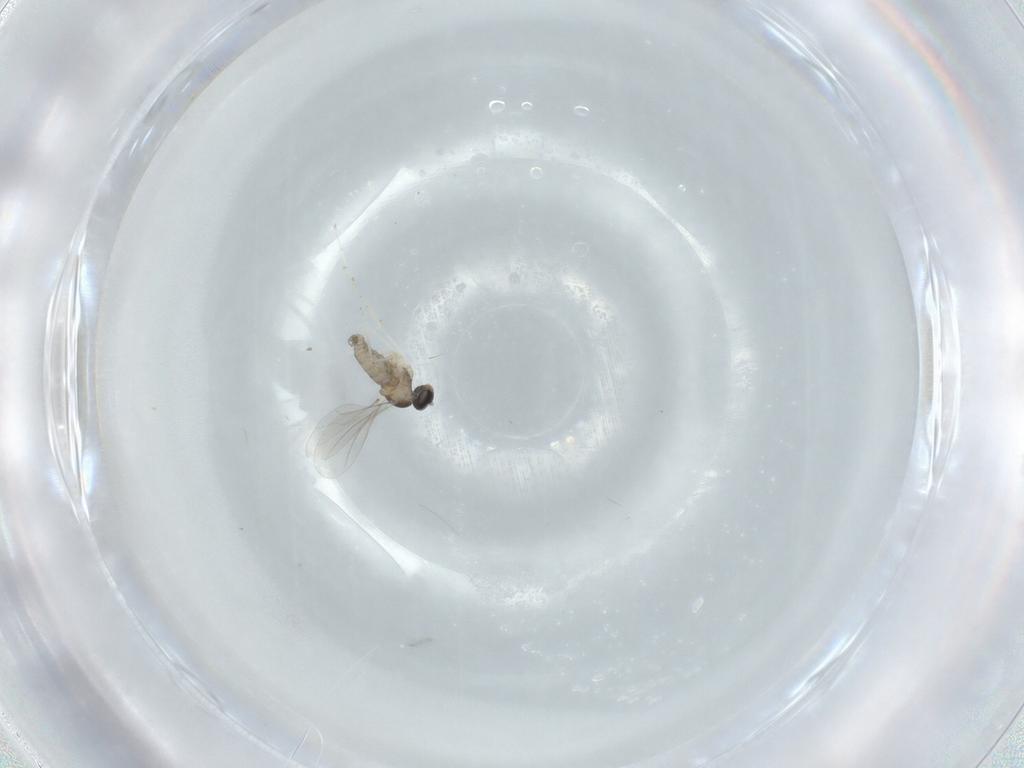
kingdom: Animalia
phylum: Arthropoda
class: Insecta
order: Diptera
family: Cecidomyiidae
